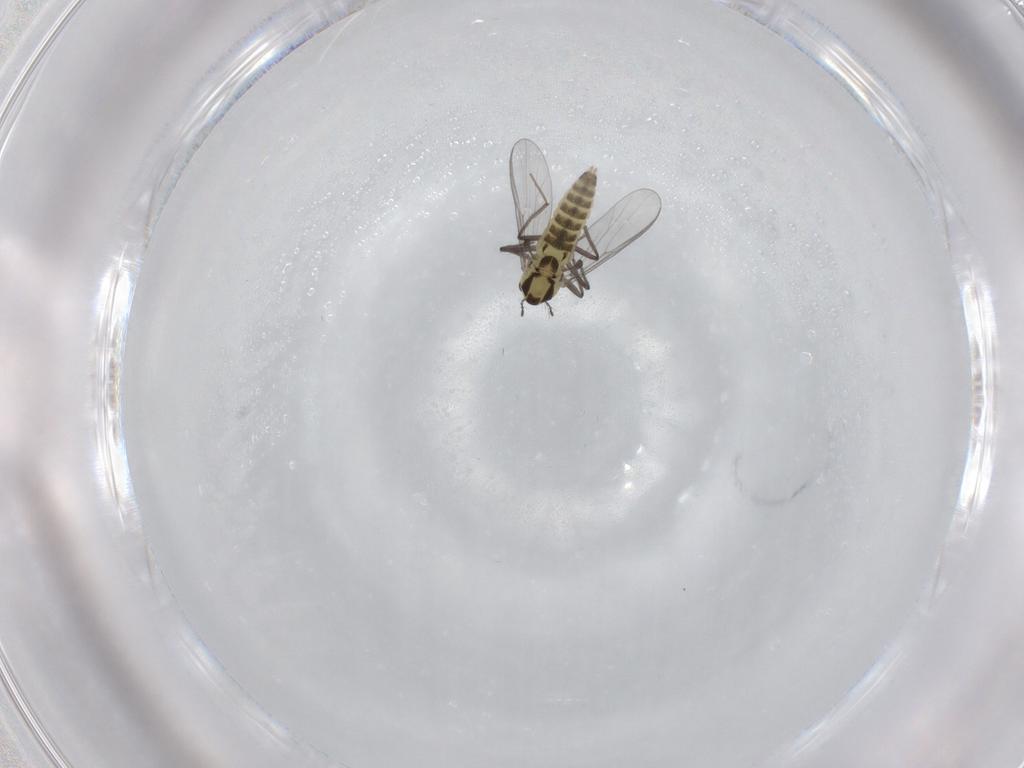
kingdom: Animalia
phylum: Arthropoda
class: Insecta
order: Diptera
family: Chironomidae
